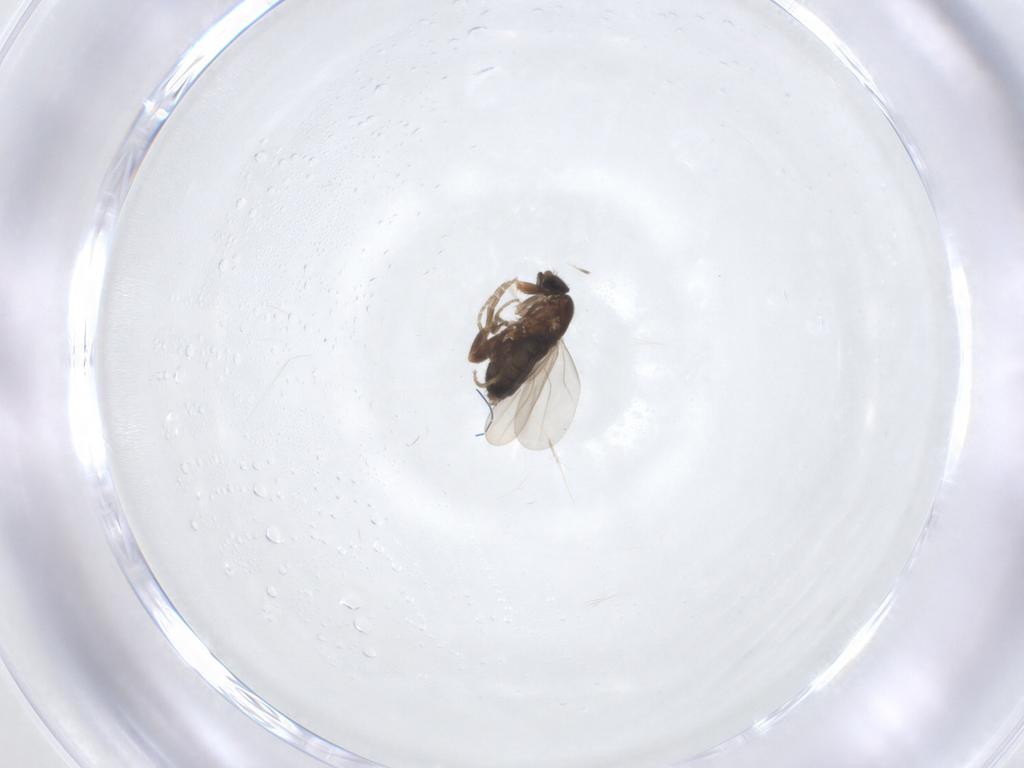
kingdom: Animalia
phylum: Arthropoda
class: Insecta
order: Diptera
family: Phoridae
